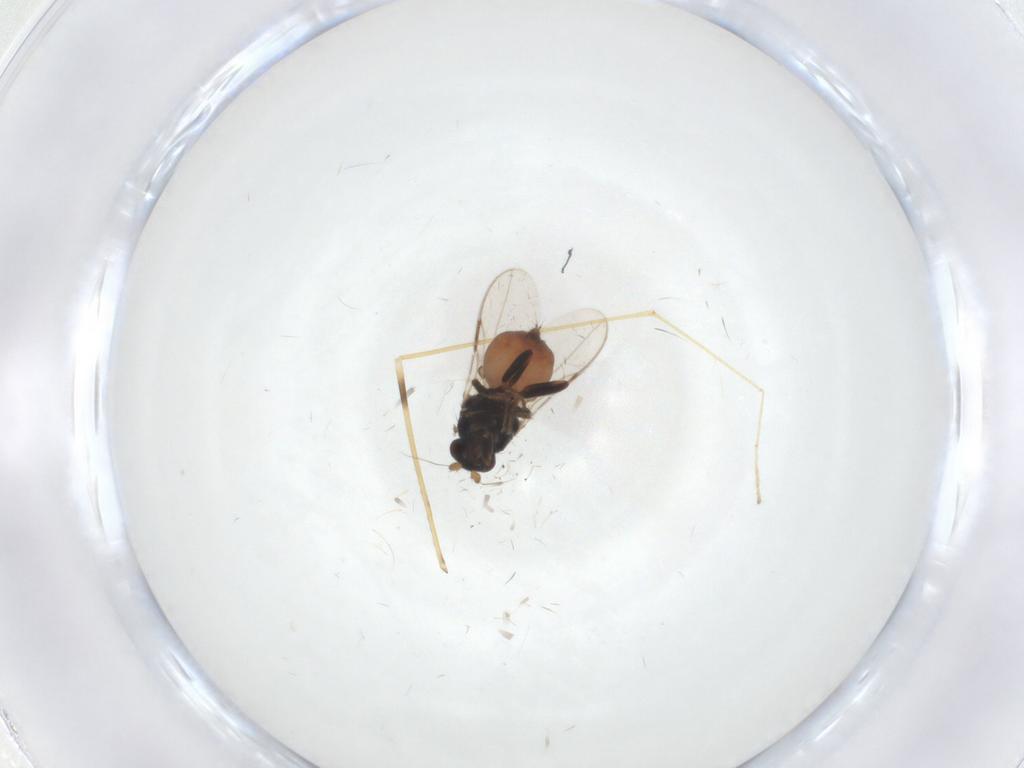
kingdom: Animalia
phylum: Arthropoda
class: Insecta
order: Diptera
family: Sphaeroceridae
